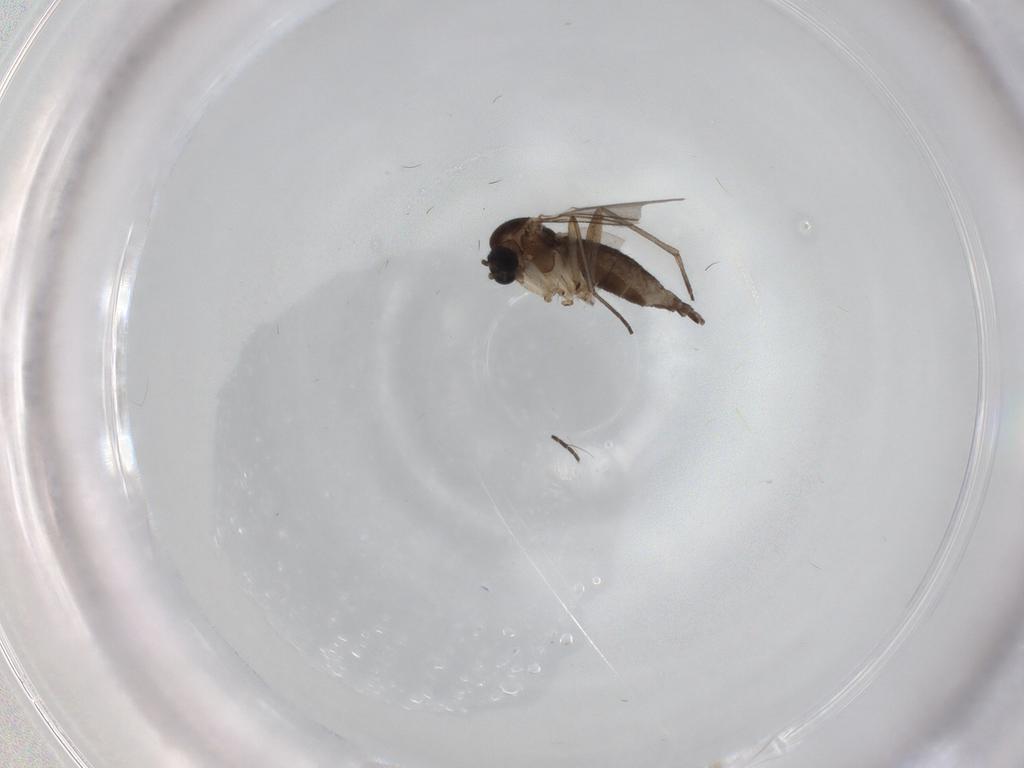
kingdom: Animalia
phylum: Arthropoda
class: Insecta
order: Diptera
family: Sciaridae
